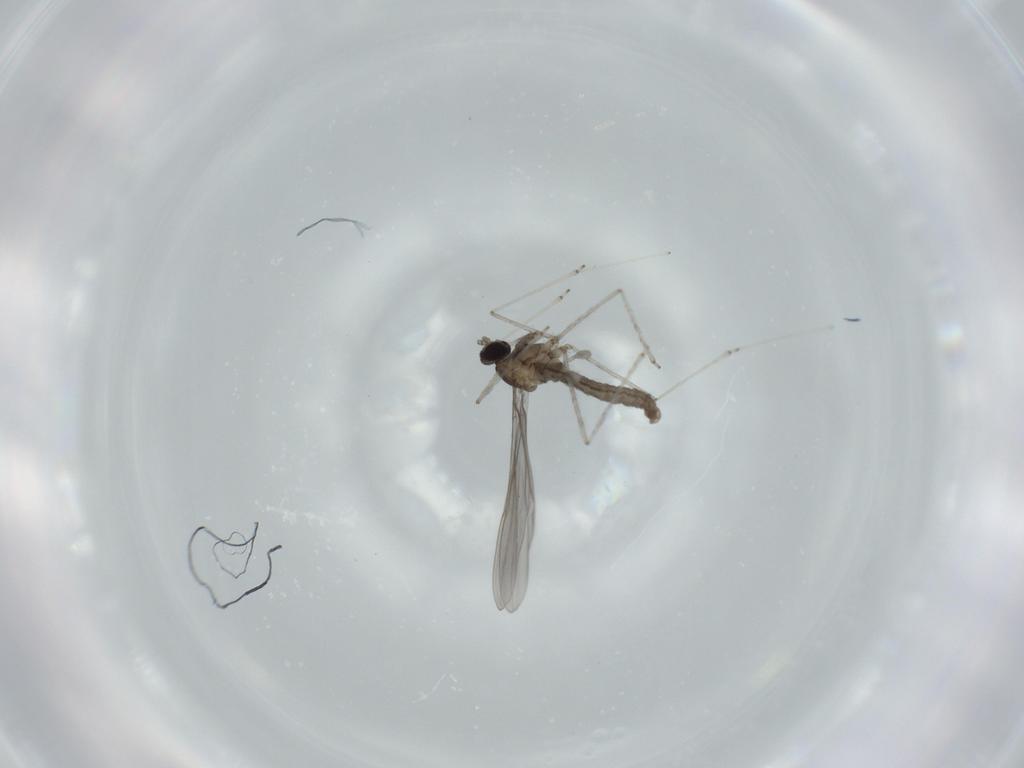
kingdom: Animalia
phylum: Arthropoda
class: Insecta
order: Diptera
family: Cecidomyiidae
